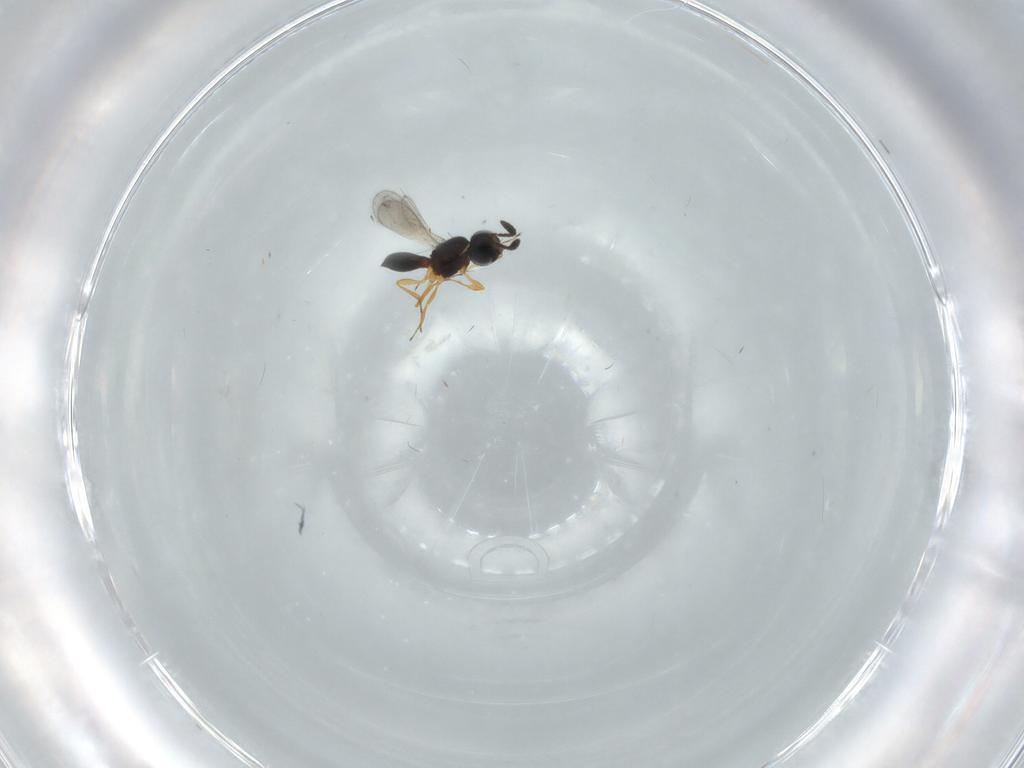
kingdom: Animalia
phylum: Arthropoda
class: Insecta
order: Hymenoptera
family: Scelionidae
